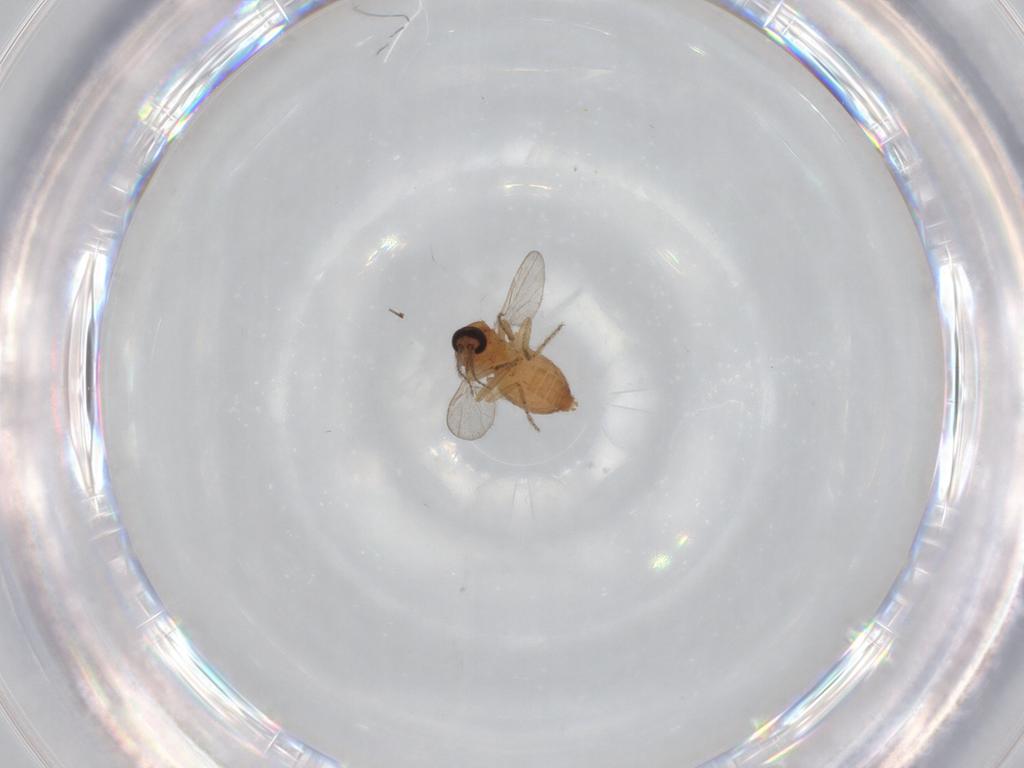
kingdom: Animalia
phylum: Arthropoda
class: Insecta
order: Diptera
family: Ceratopogonidae
